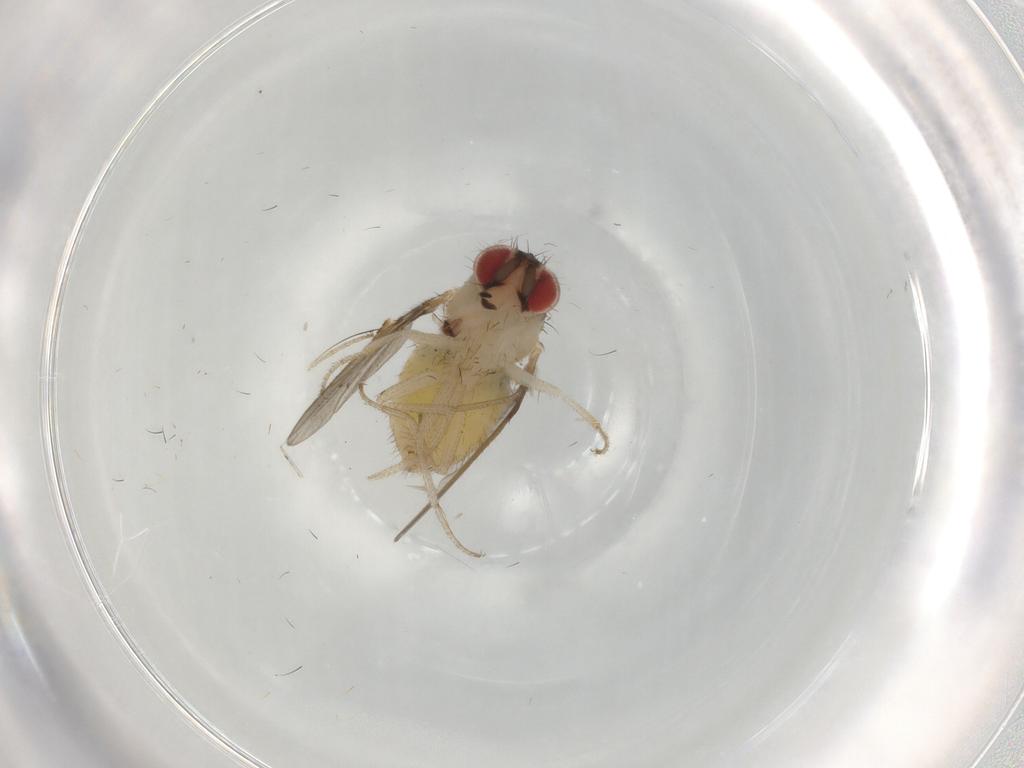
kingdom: Animalia
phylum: Arthropoda
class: Insecta
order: Diptera
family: Drosophilidae
